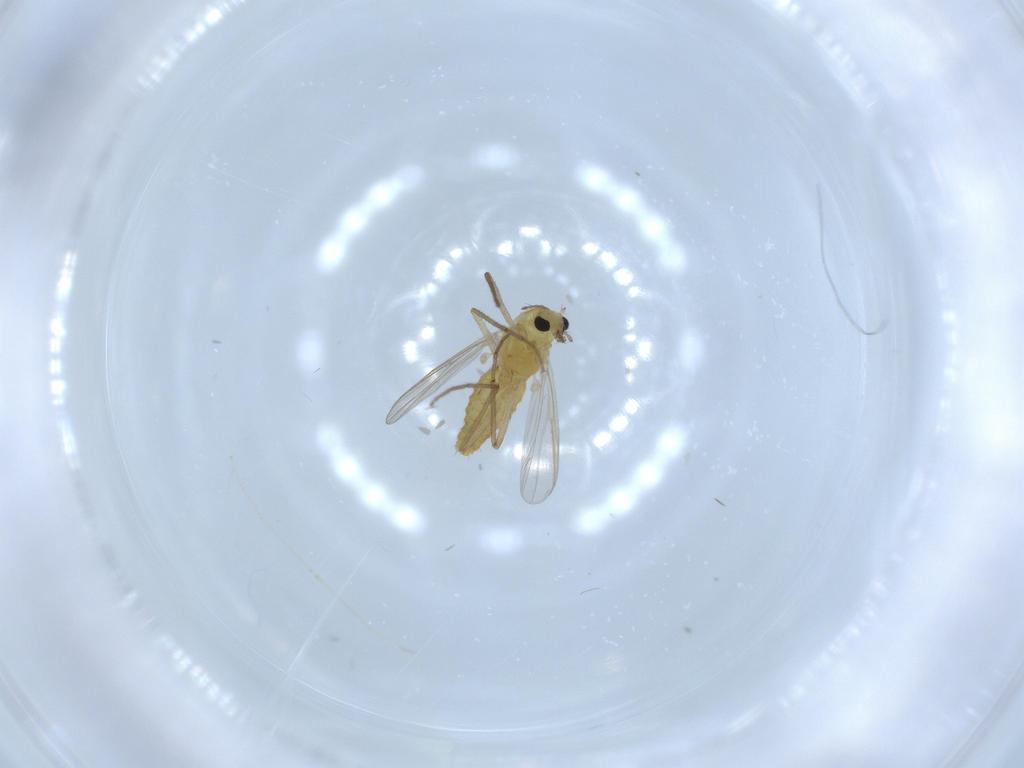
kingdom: Animalia
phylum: Arthropoda
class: Insecta
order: Diptera
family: Chironomidae
